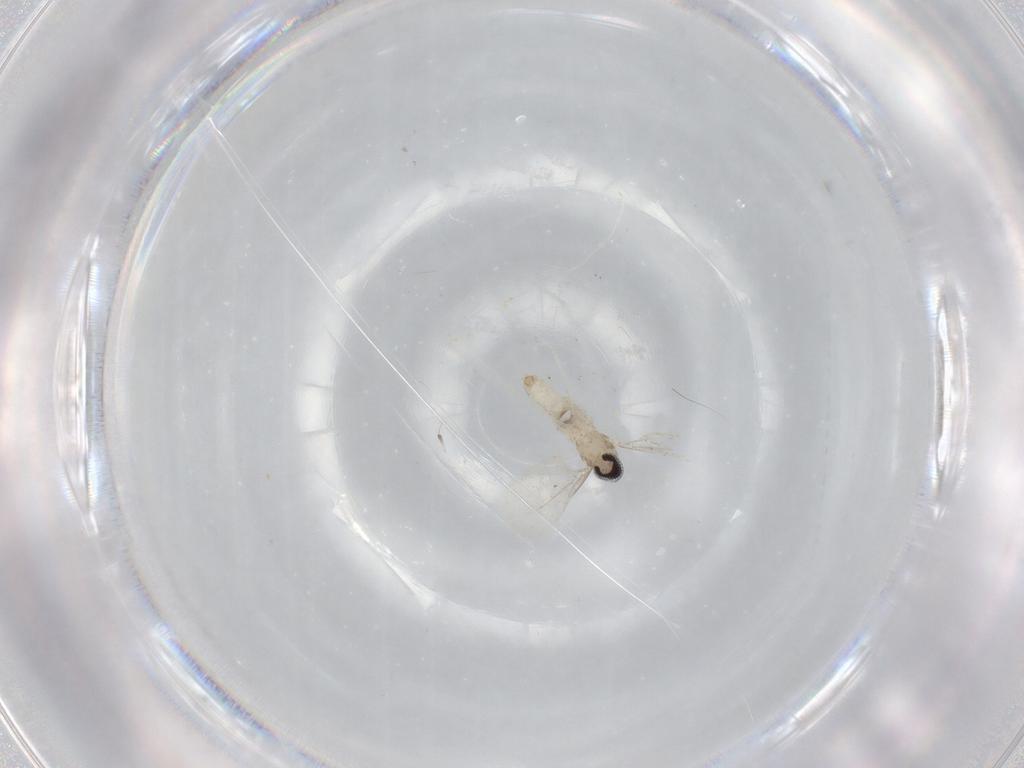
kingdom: Animalia
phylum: Arthropoda
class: Insecta
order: Diptera
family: Cecidomyiidae
